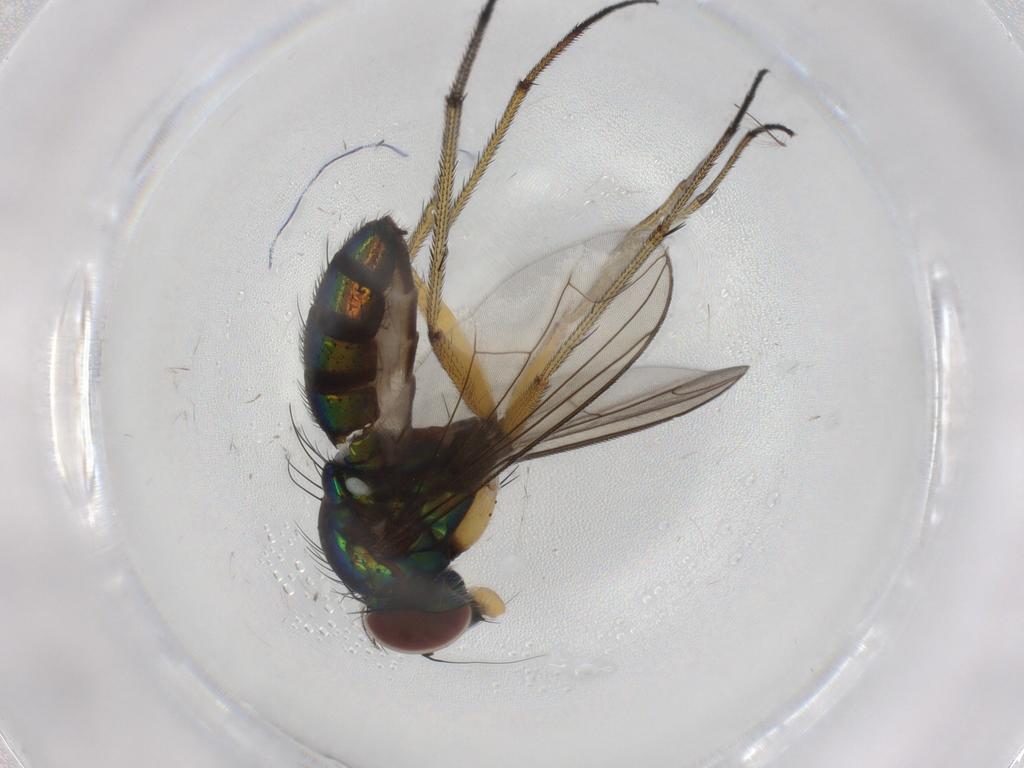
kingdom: Animalia
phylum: Arthropoda
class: Insecta
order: Diptera
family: Dolichopodidae
